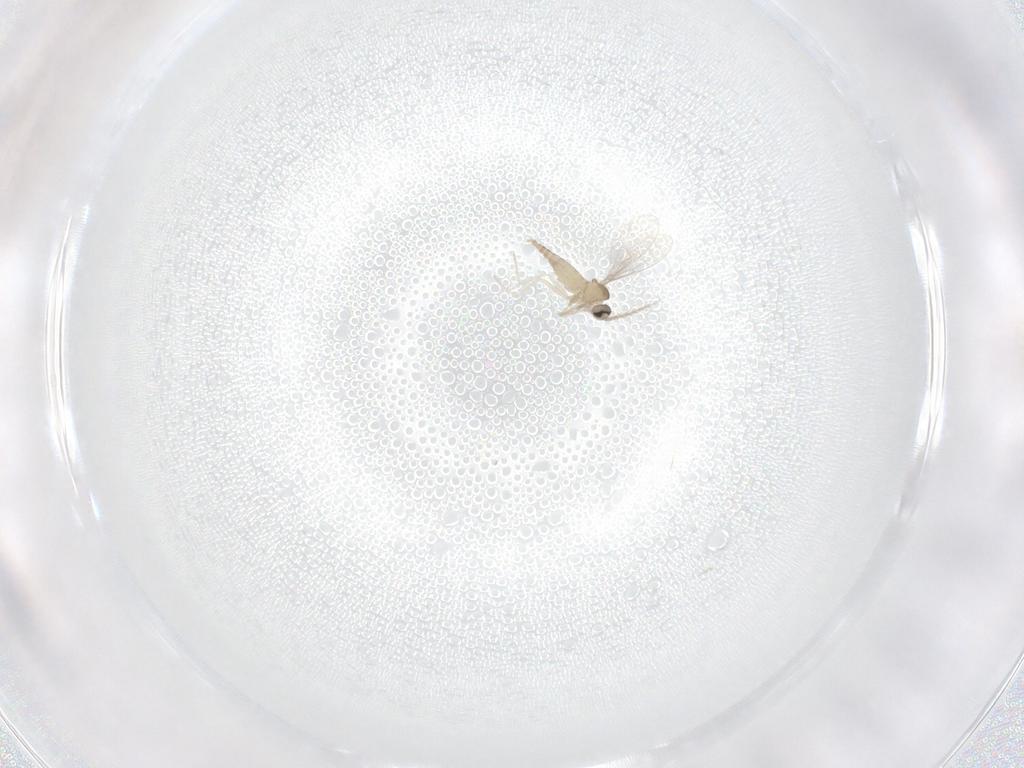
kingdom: Animalia
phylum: Arthropoda
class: Insecta
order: Diptera
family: Cecidomyiidae
